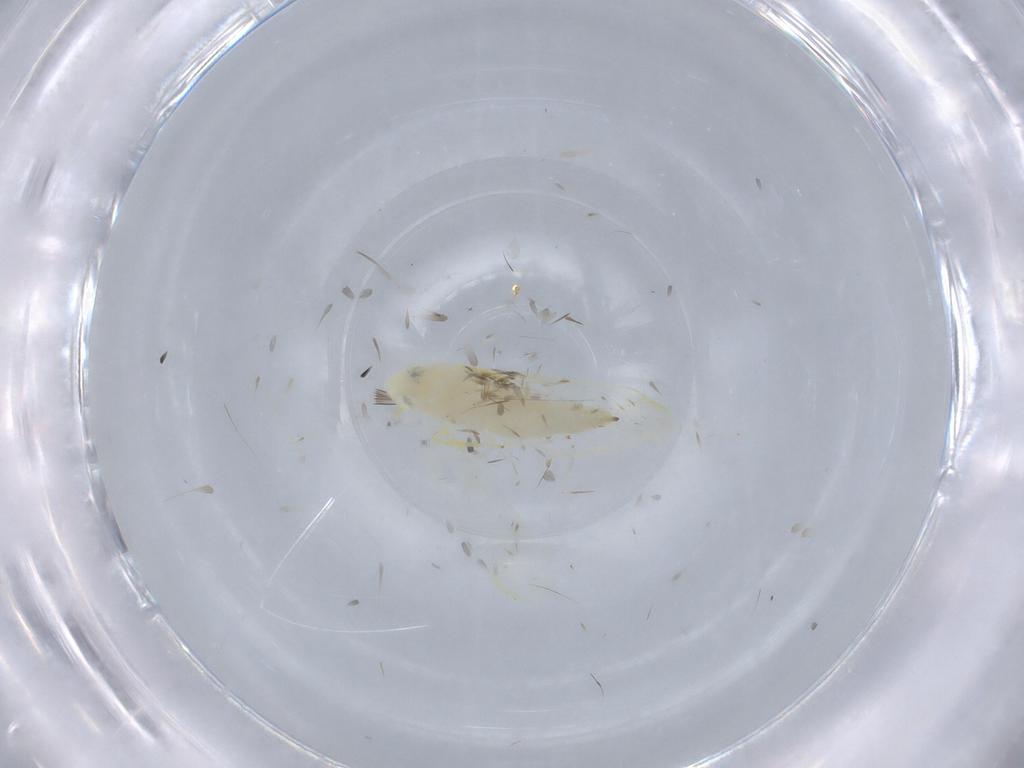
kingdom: Animalia
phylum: Arthropoda
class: Insecta
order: Hemiptera
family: Cicadellidae
